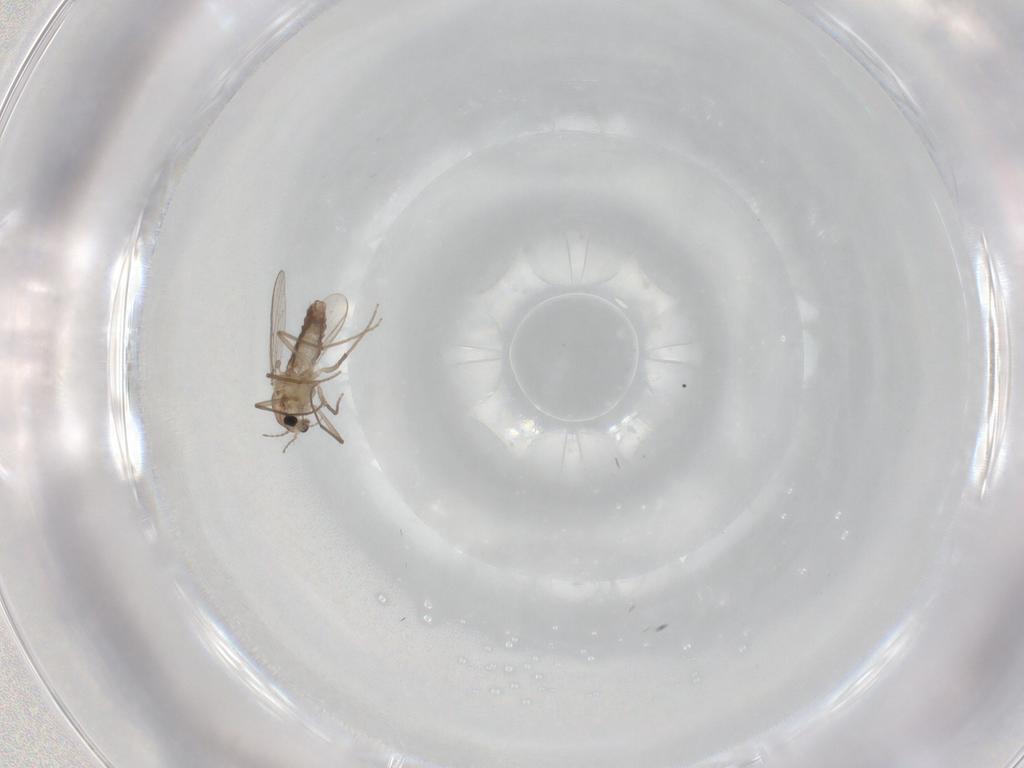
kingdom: Animalia
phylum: Arthropoda
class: Insecta
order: Diptera
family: Chironomidae
